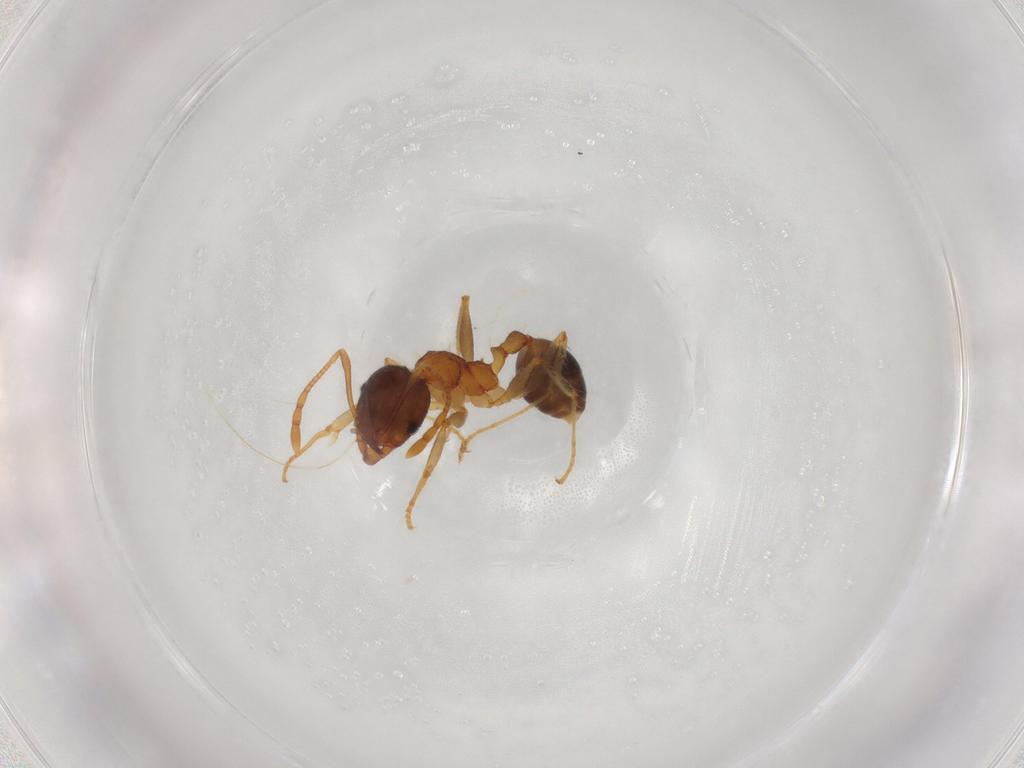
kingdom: Animalia
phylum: Arthropoda
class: Insecta
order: Hymenoptera
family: Formicidae
